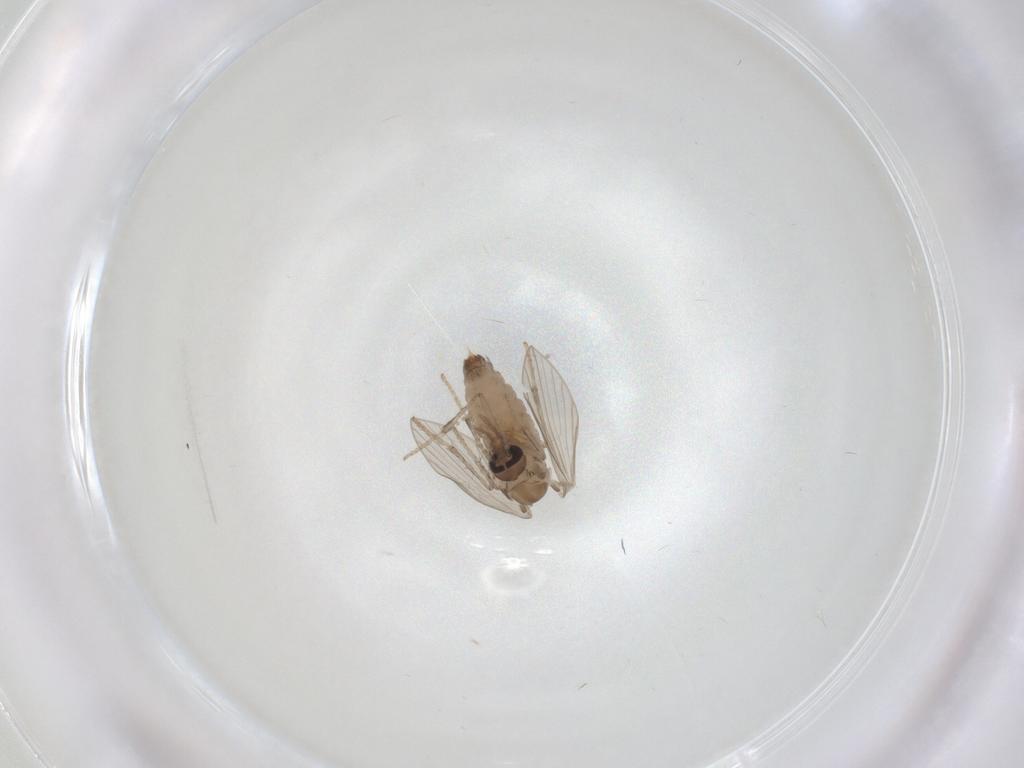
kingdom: Animalia
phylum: Arthropoda
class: Insecta
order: Diptera
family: Psychodidae
